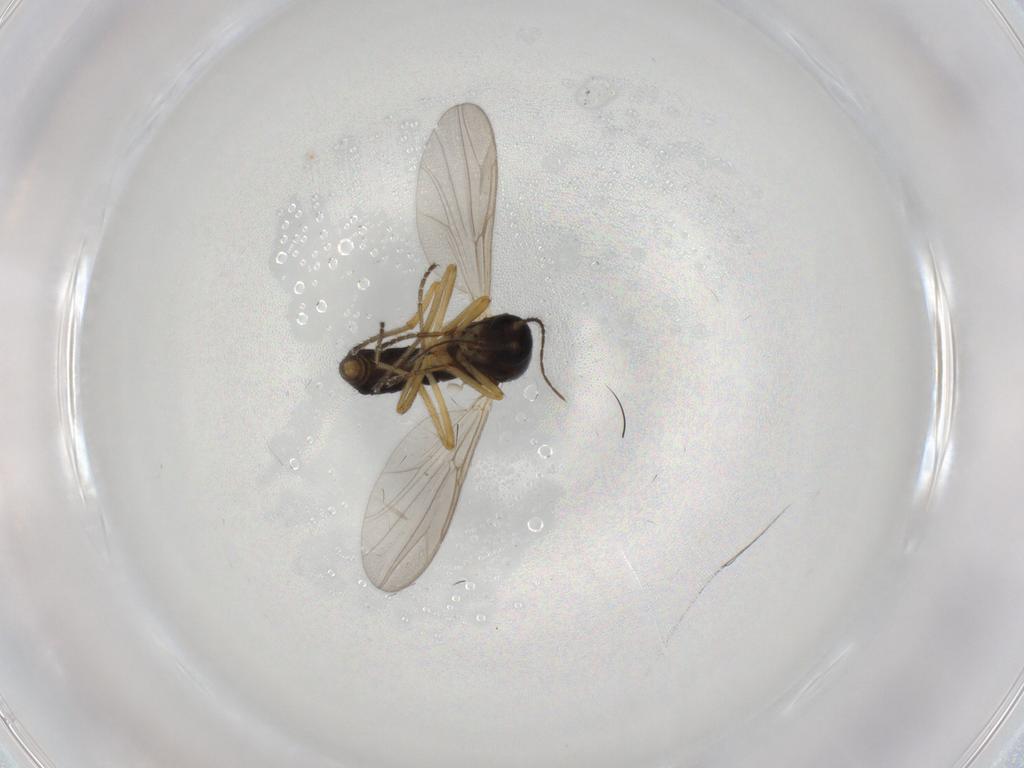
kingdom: Animalia
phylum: Arthropoda
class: Insecta
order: Diptera
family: Ceratopogonidae
